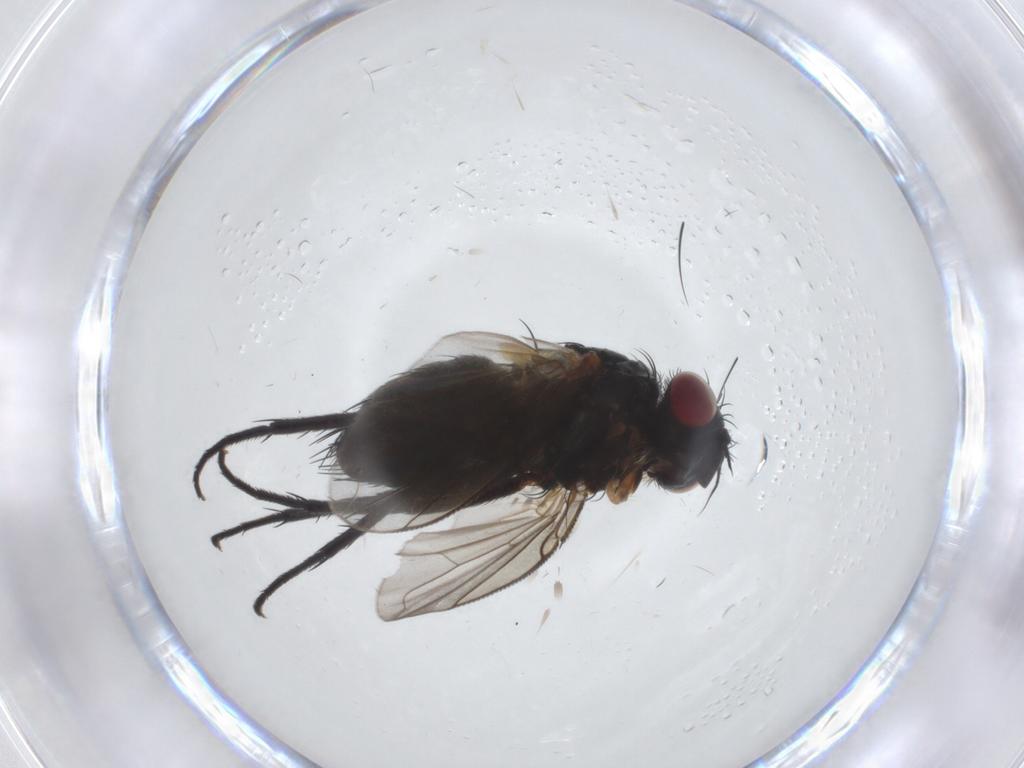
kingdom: Animalia
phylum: Arthropoda
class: Insecta
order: Diptera
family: Tachinidae
